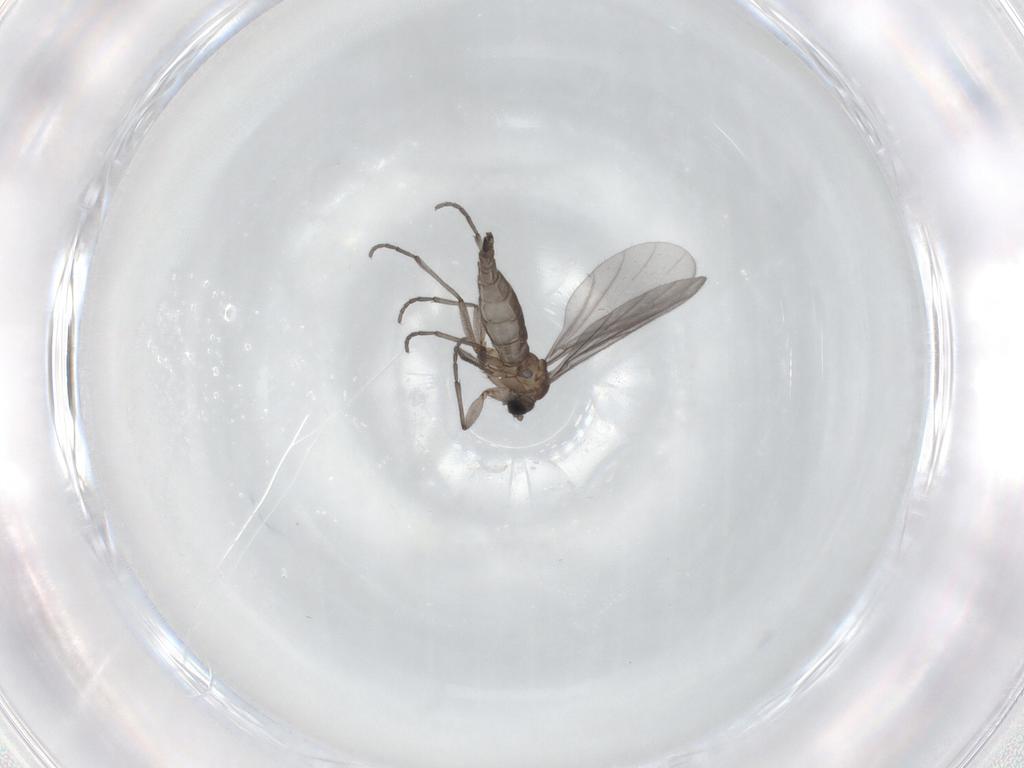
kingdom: Animalia
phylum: Arthropoda
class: Insecta
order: Diptera
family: Sciaridae
